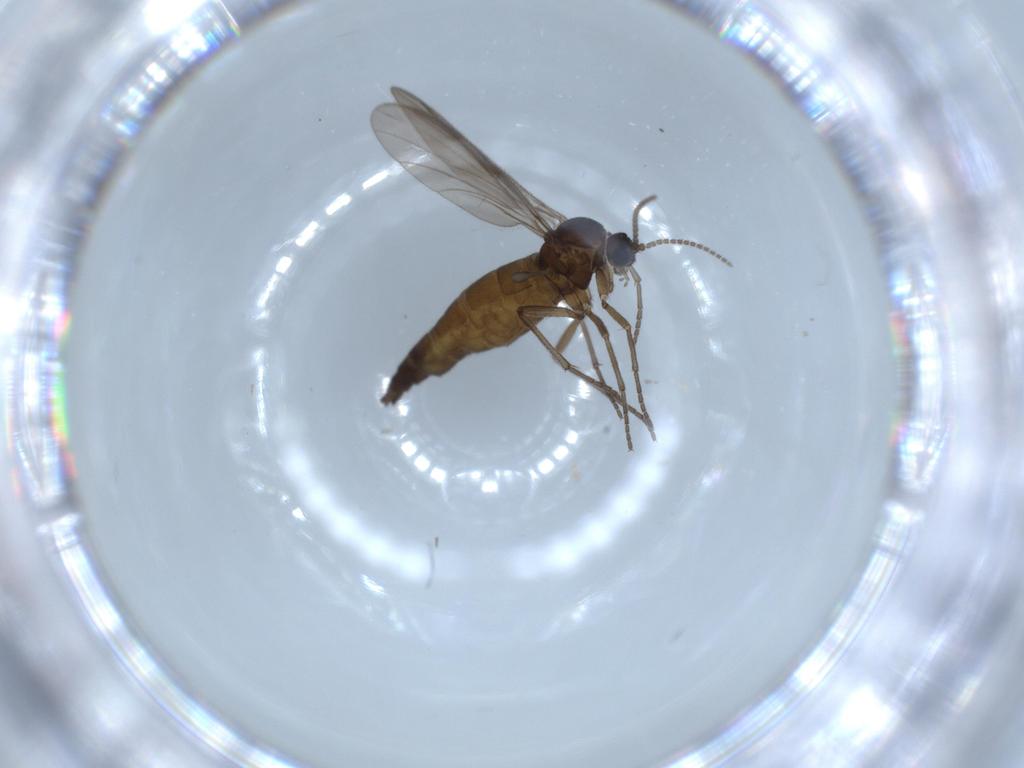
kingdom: Animalia
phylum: Arthropoda
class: Insecta
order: Diptera
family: Sciaridae
